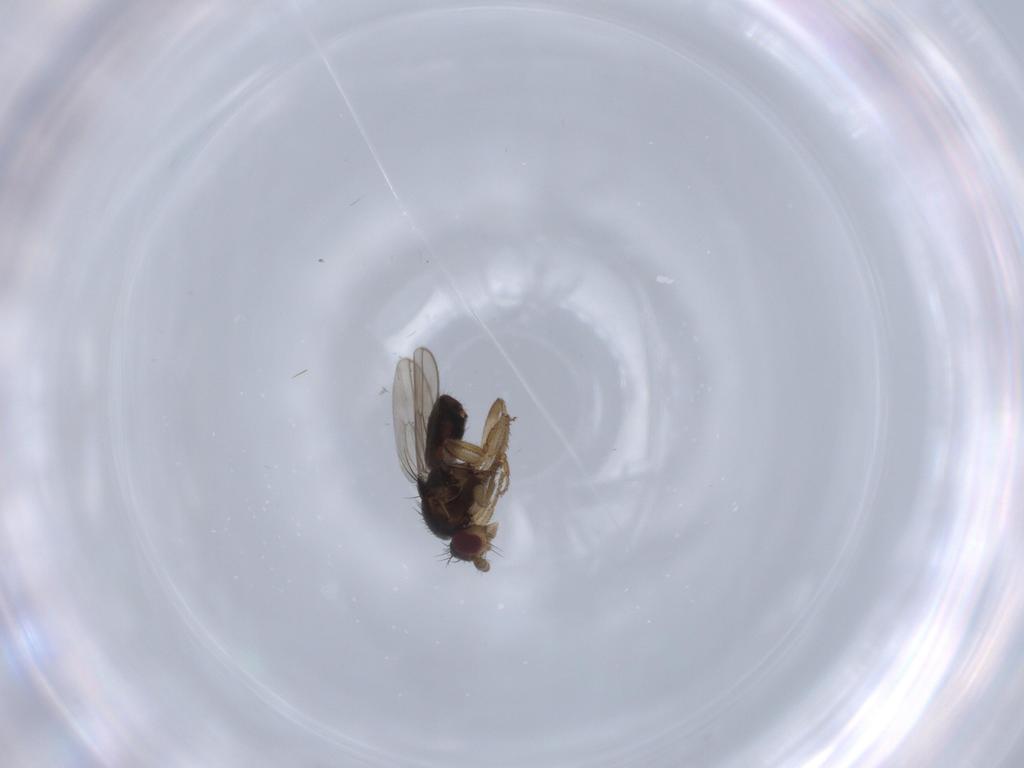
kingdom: Animalia
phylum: Arthropoda
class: Insecta
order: Diptera
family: Sphaeroceridae
